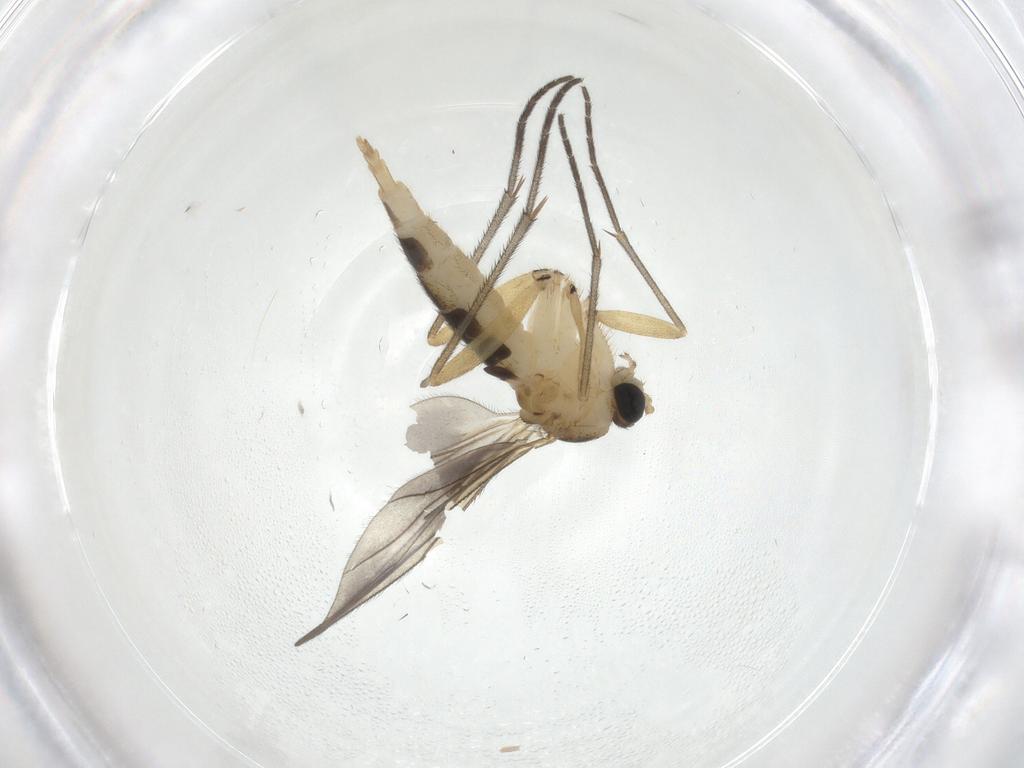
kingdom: Animalia
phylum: Arthropoda
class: Insecta
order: Diptera
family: Sciaridae
